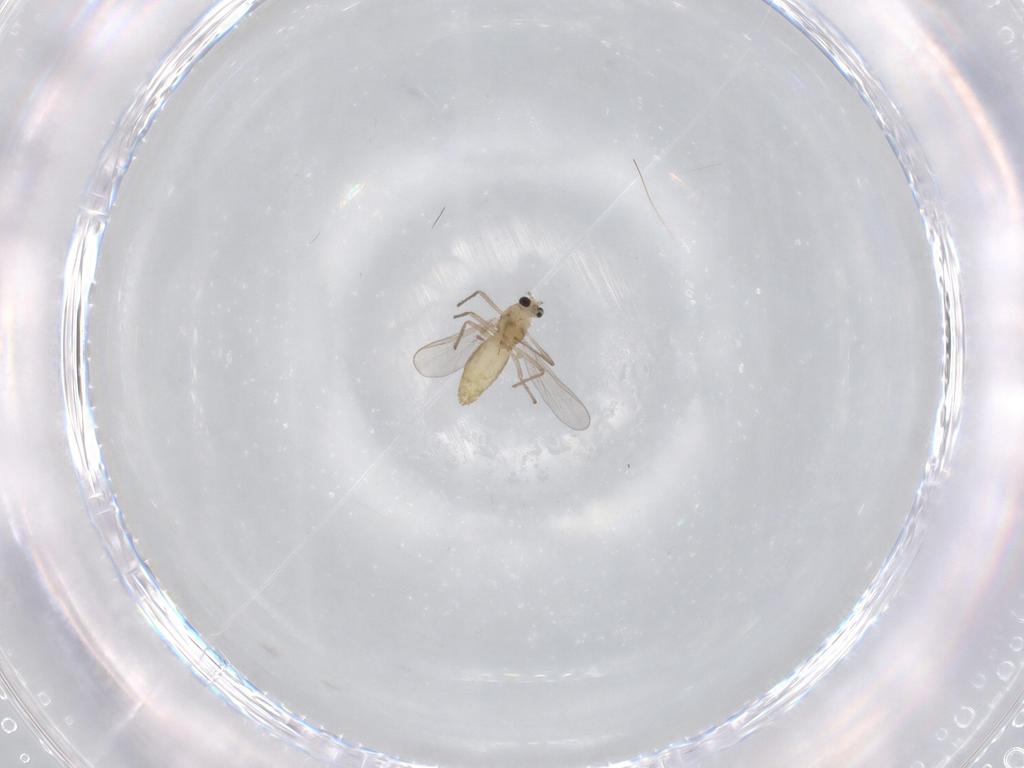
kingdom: Animalia
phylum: Arthropoda
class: Insecta
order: Diptera
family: Chironomidae
